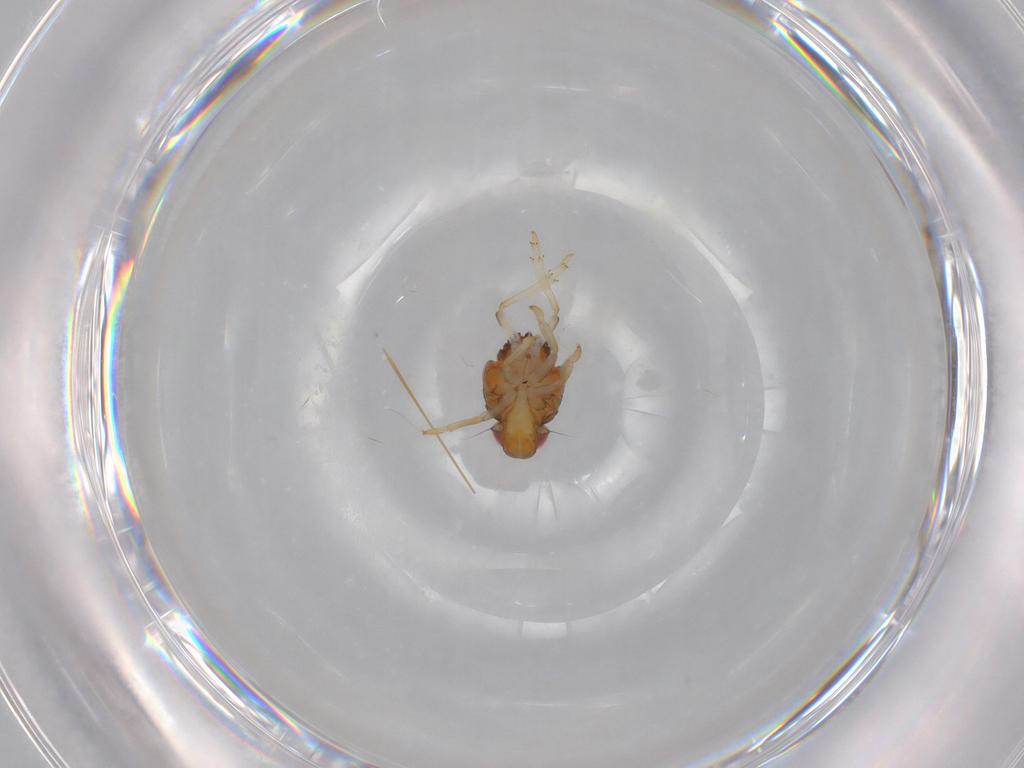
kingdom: Animalia
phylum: Arthropoda
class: Insecta
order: Hemiptera
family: Issidae
